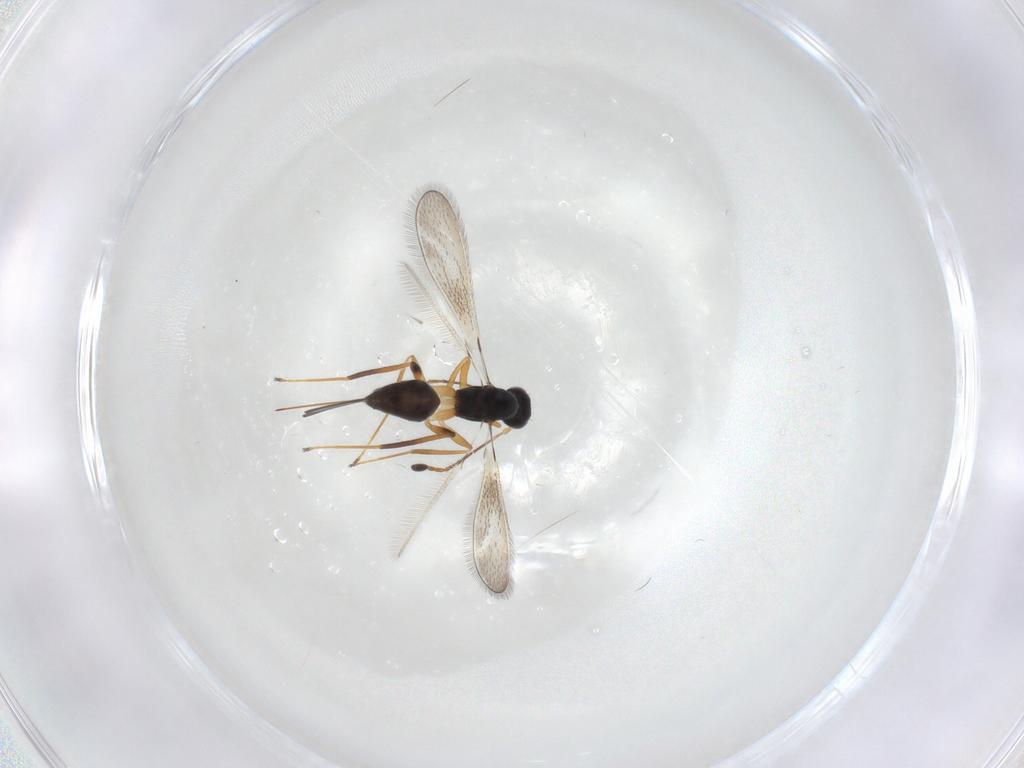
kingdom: Animalia
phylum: Arthropoda
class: Insecta
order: Hymenoptera
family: Mymaridae
